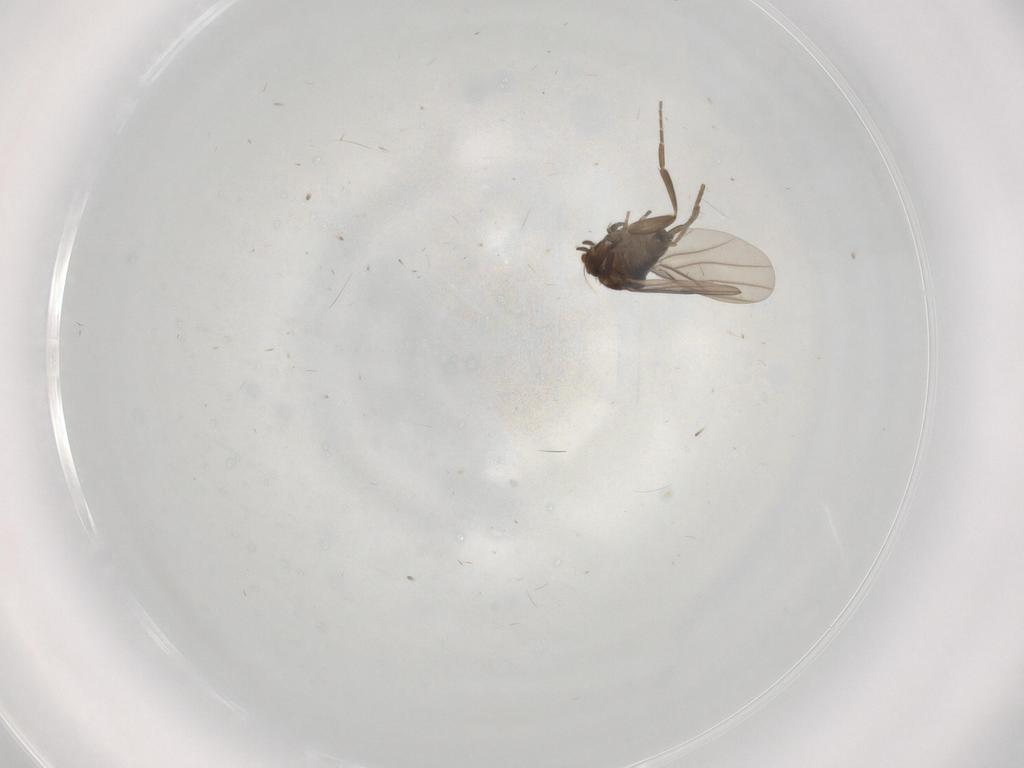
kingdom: Animalia
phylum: Arthropoda
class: Insecta
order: Diptera
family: Phoridae
